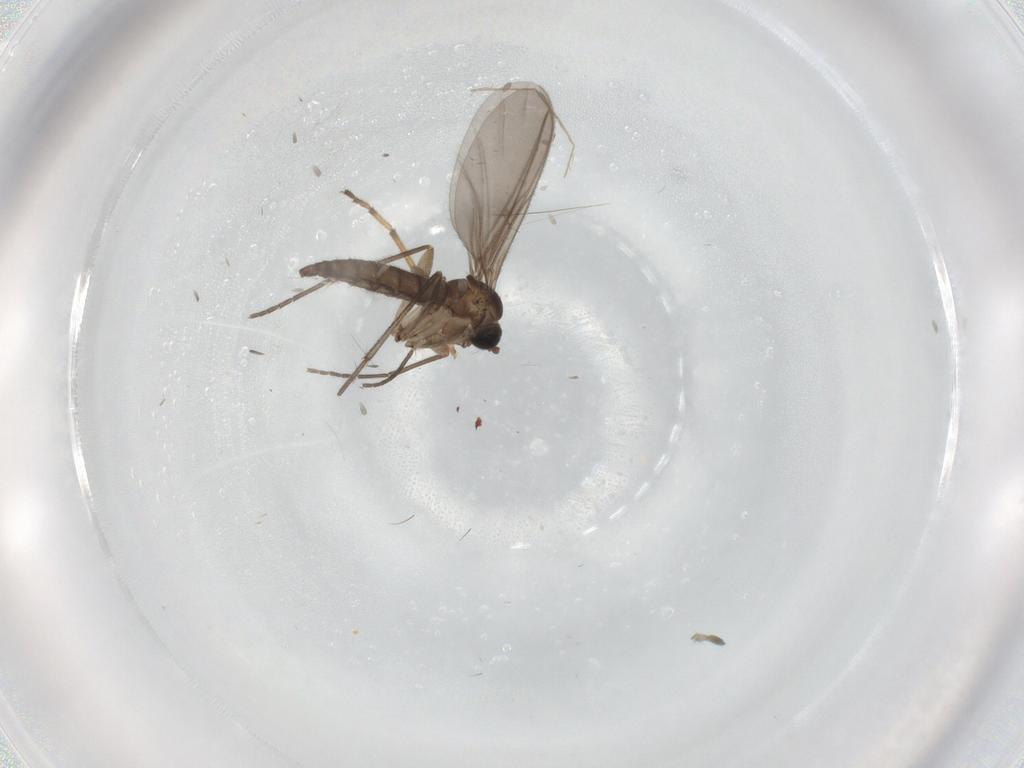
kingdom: Animalia
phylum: Arthropoda
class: Insecta
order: Diptera
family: Sciaridae
